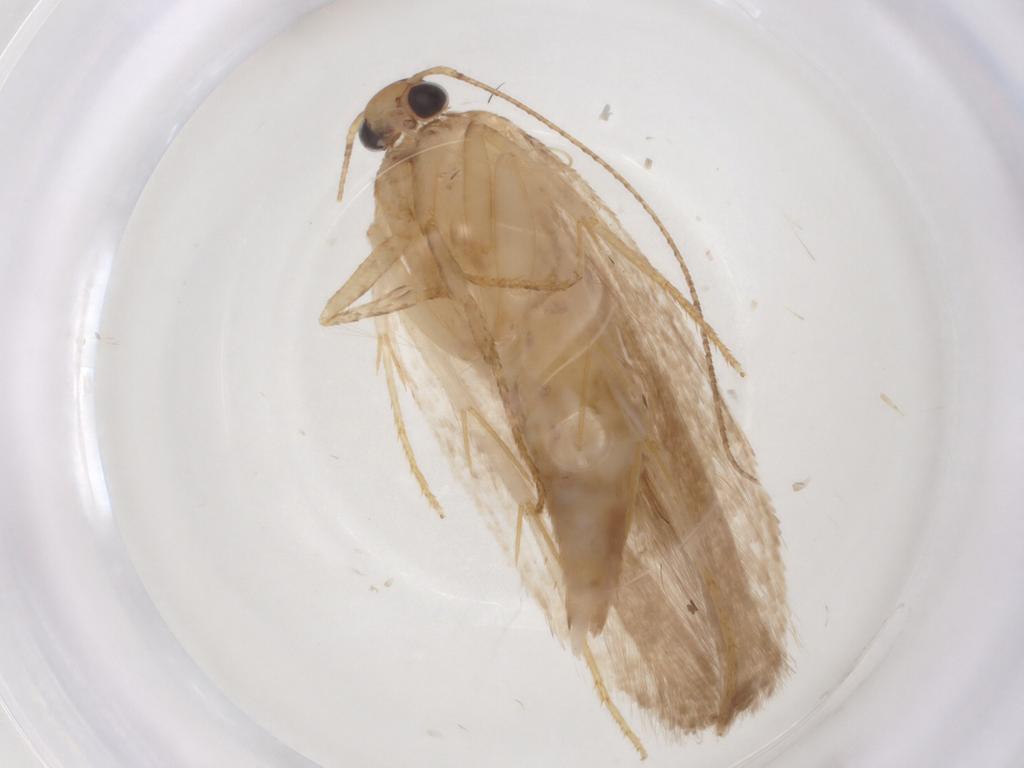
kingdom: Animalia
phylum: Arthropoda
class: Insecta
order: Lepidoptera
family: Gelechiidae
